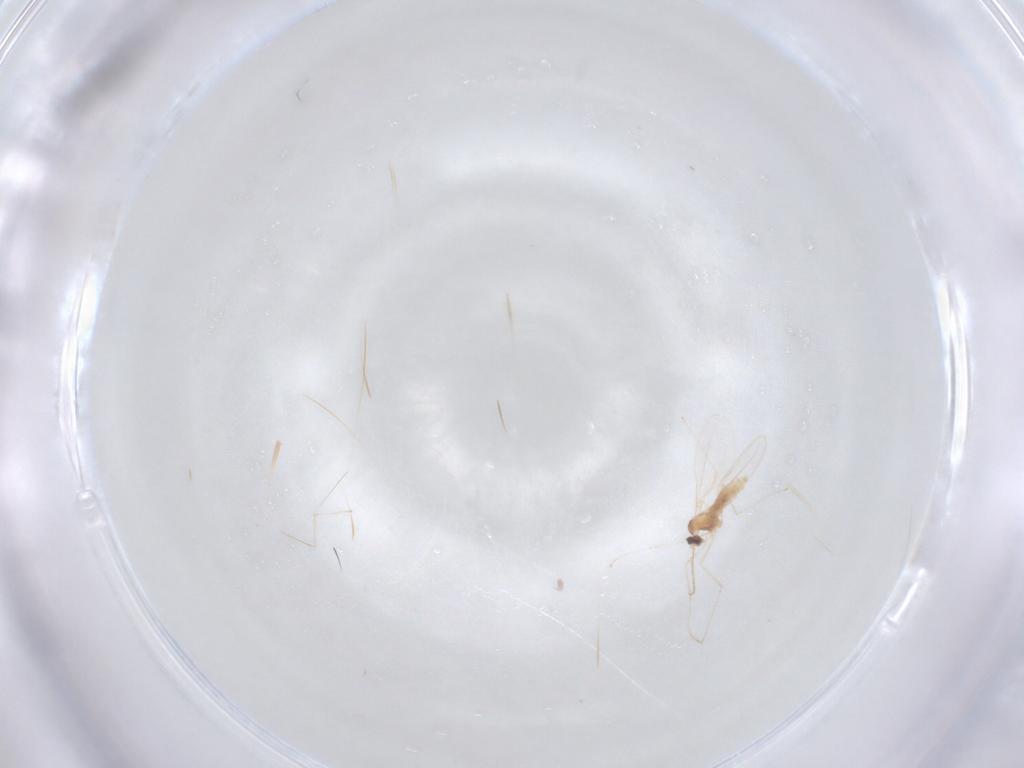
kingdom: Animalia
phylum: Arthropoda
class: Insecta
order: Diptera
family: Chloropidae
